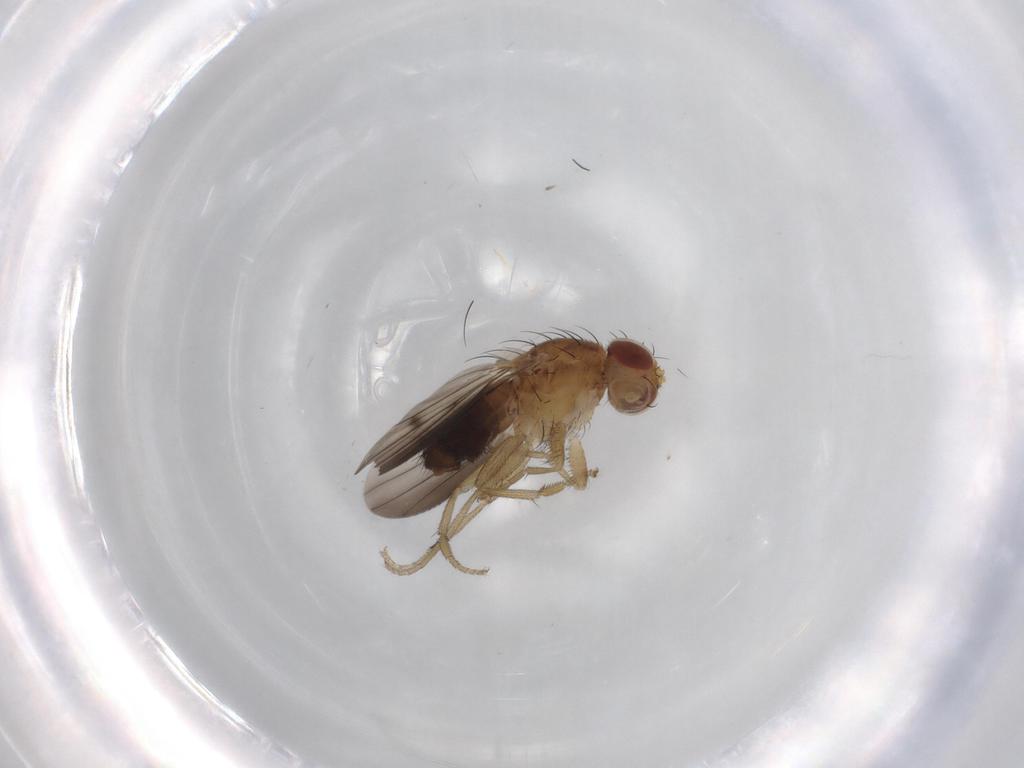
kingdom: Animalia
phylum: Arthropoda
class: Insecta
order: Diptera
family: Heleomyzidae
